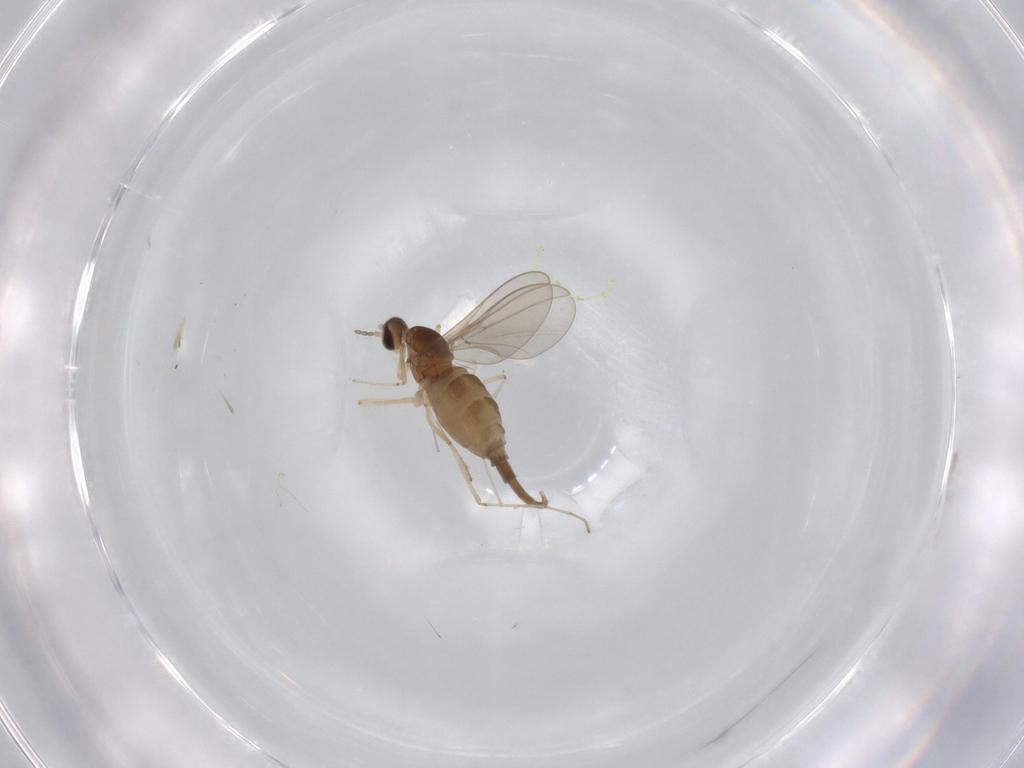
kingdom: Animalia
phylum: Arthropoda
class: Insecta
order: Diptera
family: Cecidomyiidae
